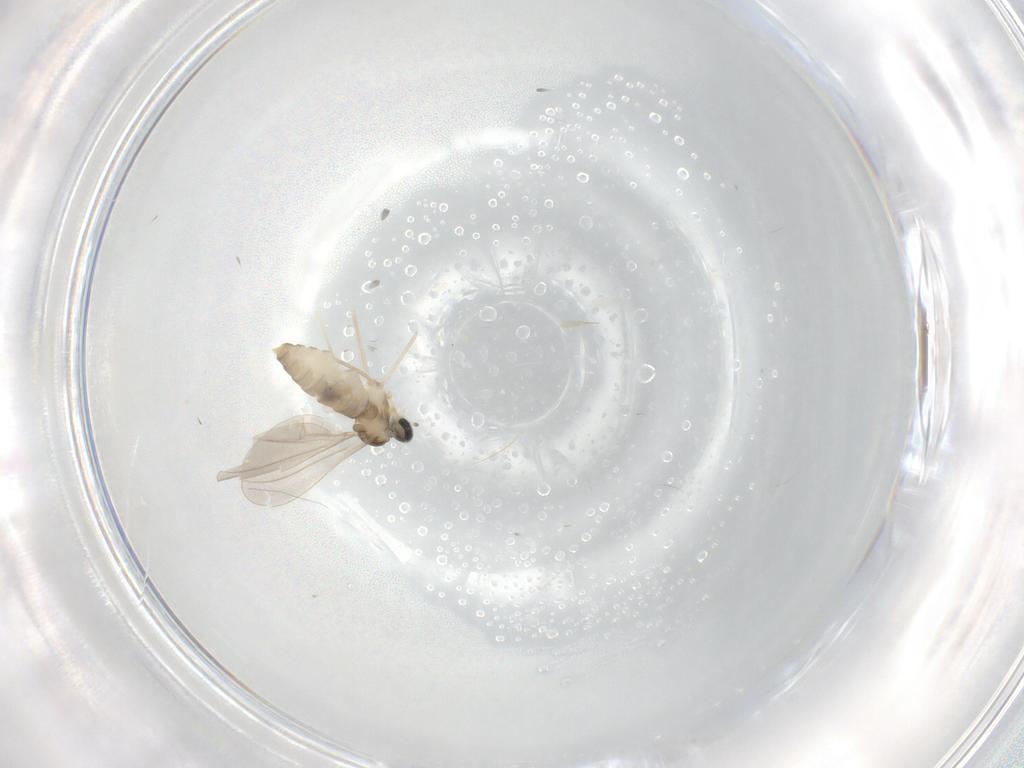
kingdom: Animalia
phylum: Arthropoda
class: Insecta
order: Diptera
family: Cecidomyiidae
